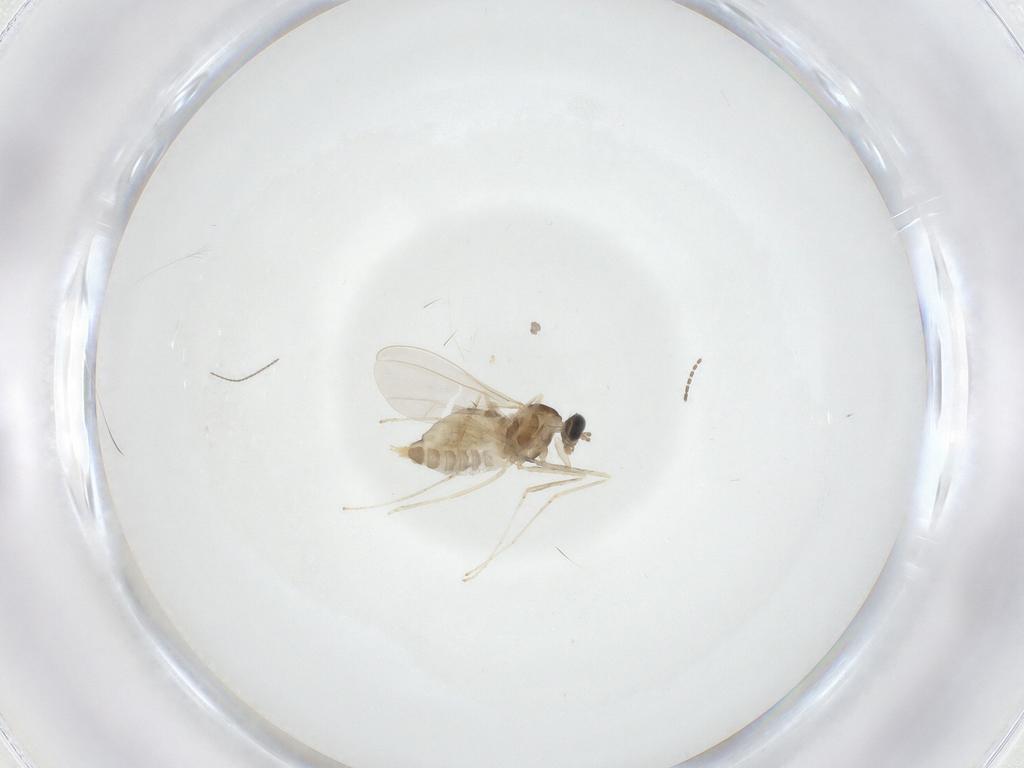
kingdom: Animalia
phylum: Arthropoda
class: Insecta
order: Diptera
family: Cecidomyiidae
